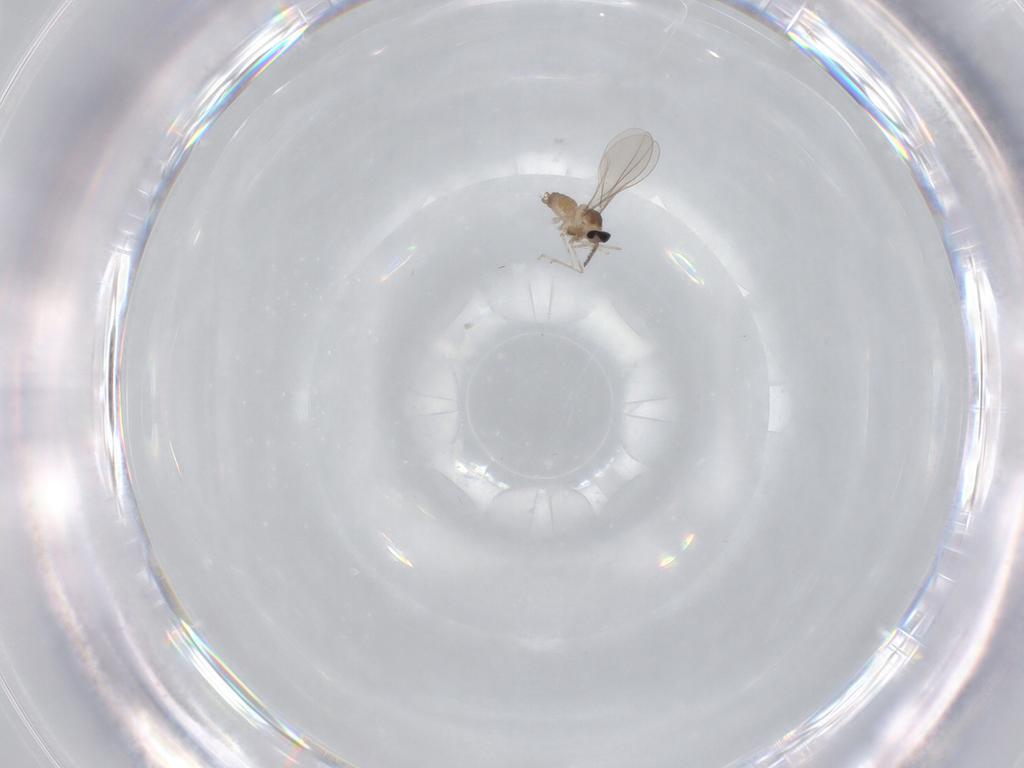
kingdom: Animalia
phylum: Arthropoda
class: Insecta
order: Diptera
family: Cecidomyiidae
